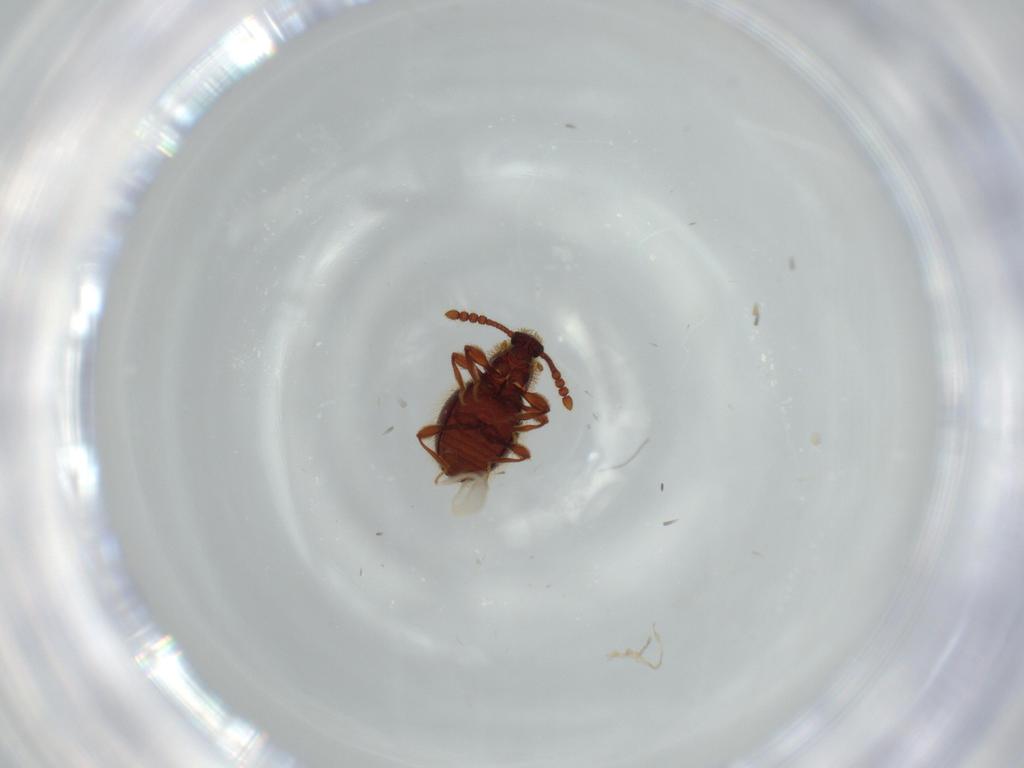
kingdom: Animalia
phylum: Arthropoda
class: Insecta
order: Coleoptera
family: Staphylinidae
